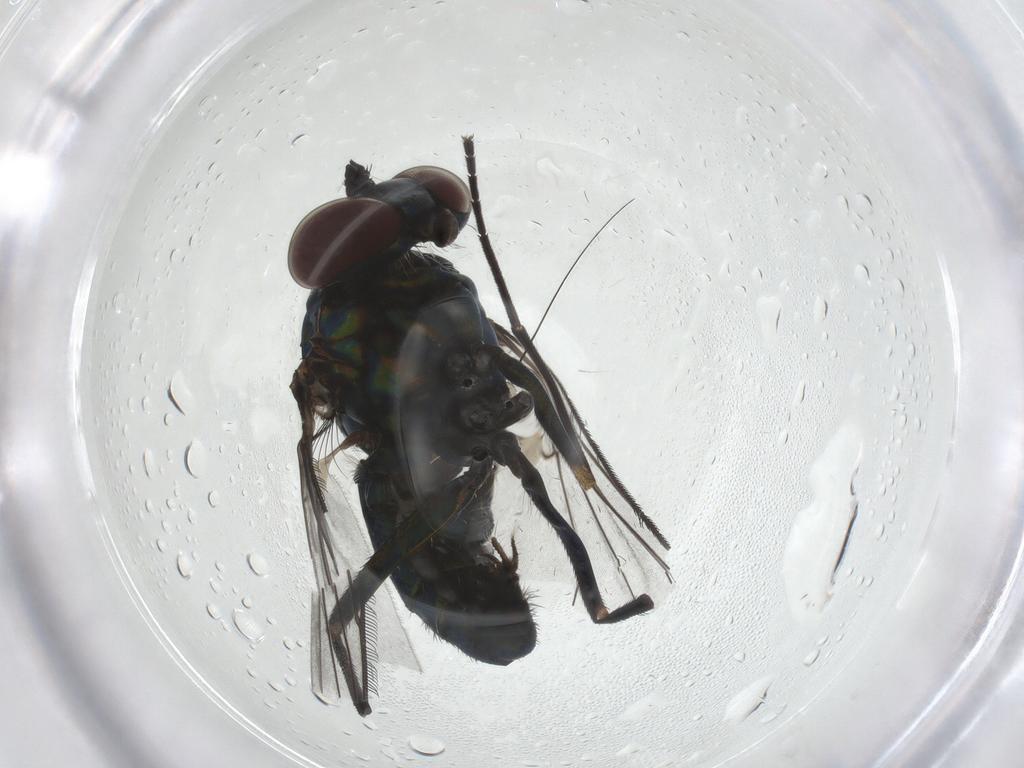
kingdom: Animalia
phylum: Arthropoda
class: Insecta
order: Diptera
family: Dolichopodidae
